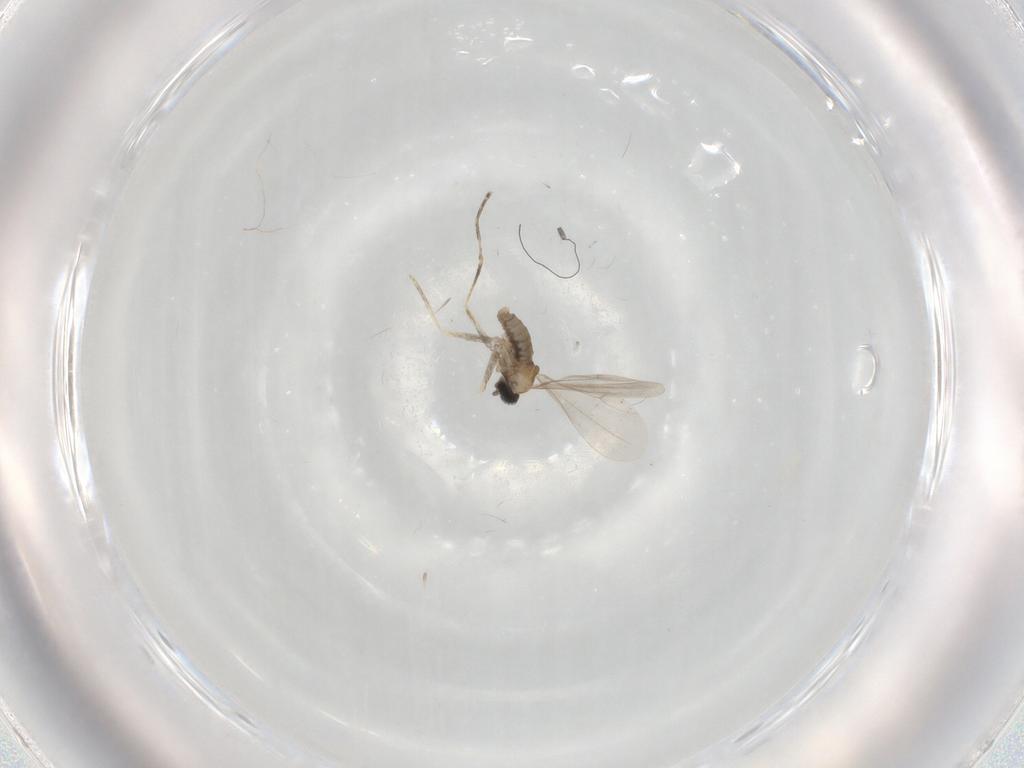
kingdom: Animalia
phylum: Arthropoda
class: Insecta
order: Diptera
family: Cecidomyiidae
